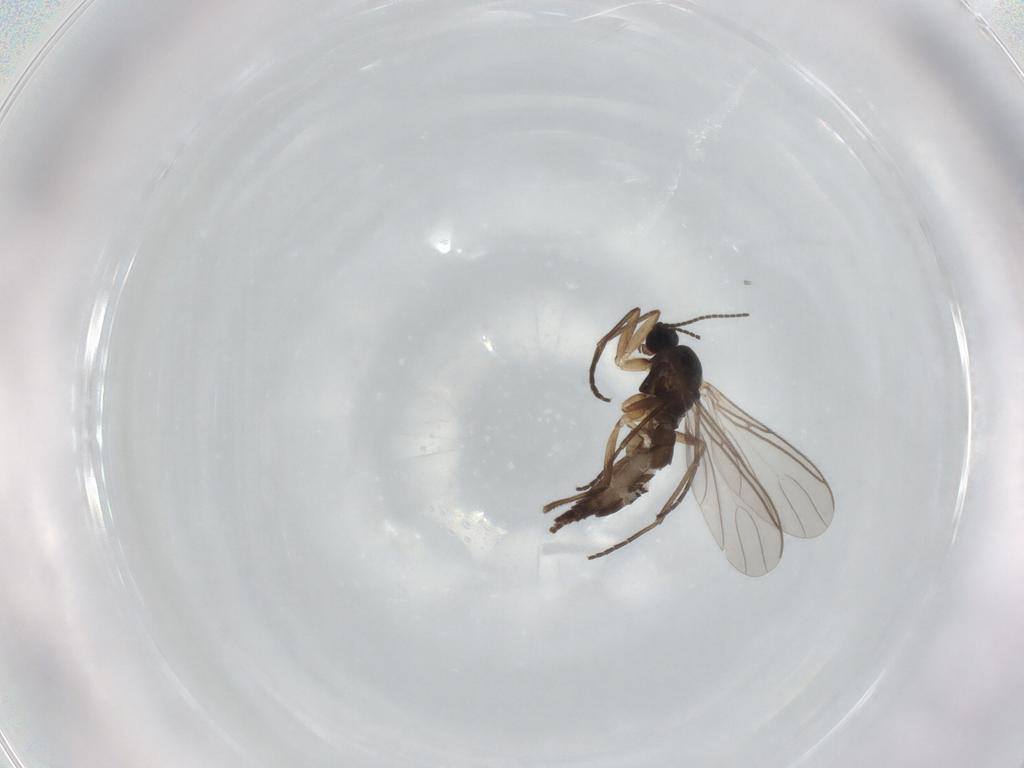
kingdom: Animalia
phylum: Arthropoda
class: Insecta
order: Diptera
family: Sciaridae
